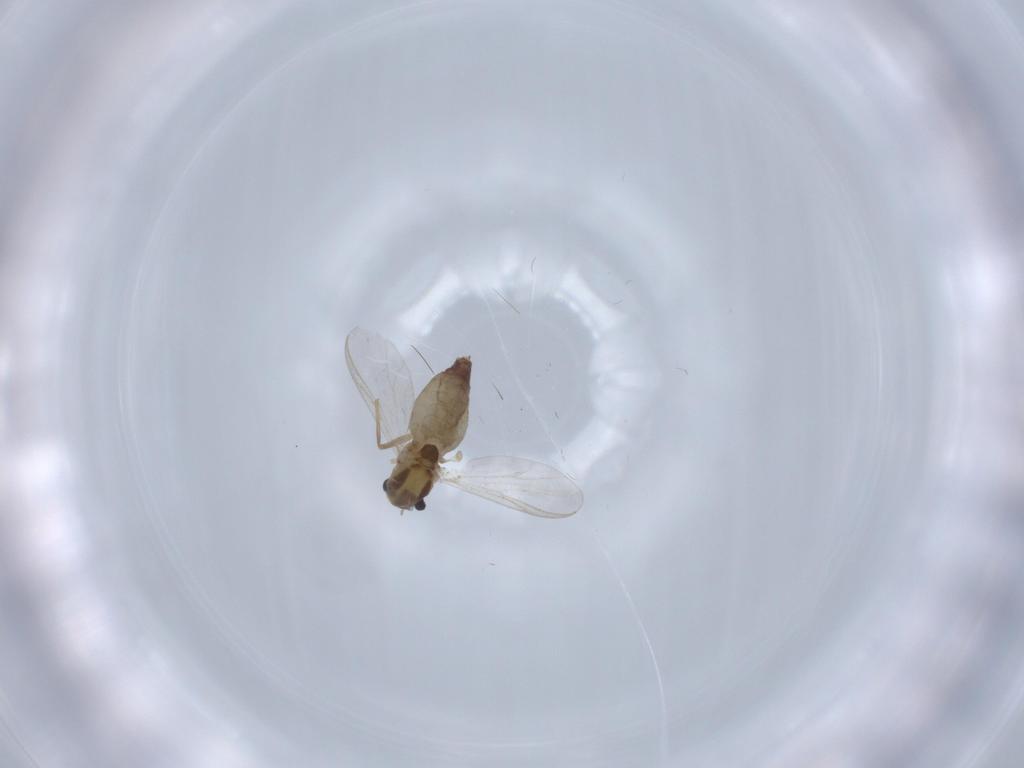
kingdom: Animalia
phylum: Arthropoda
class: Insecta
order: Diptera
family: Chironomidae
